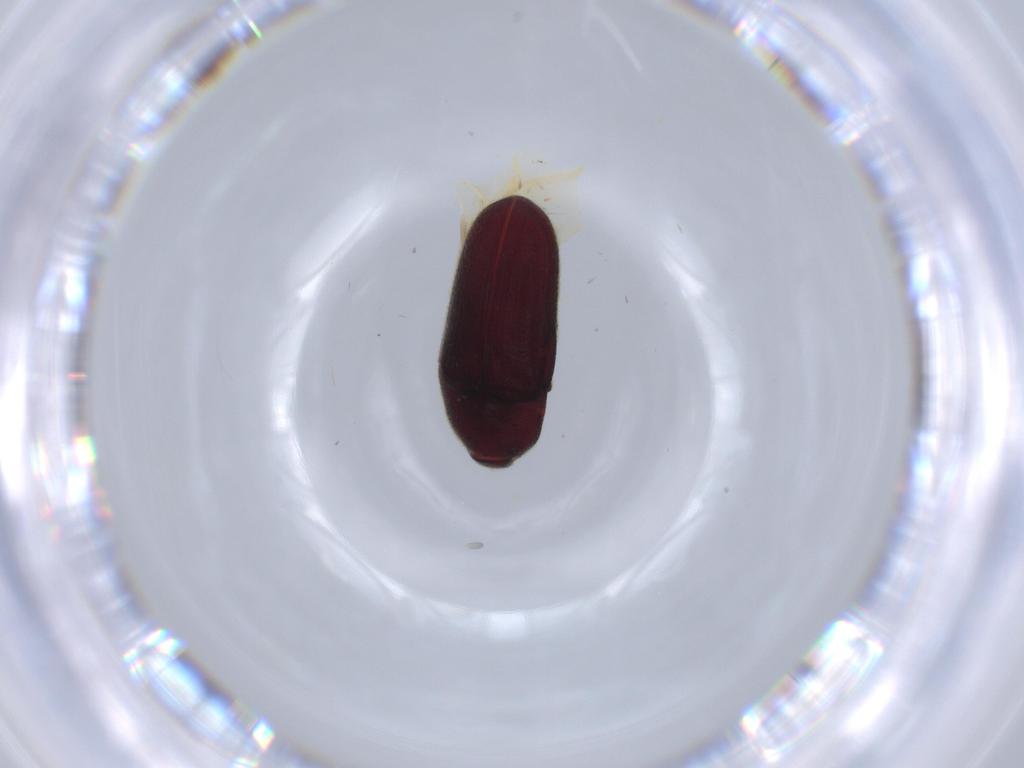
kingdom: Animalia
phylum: Arthropoda
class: Insecta
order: Coleoptera
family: Throscidae
